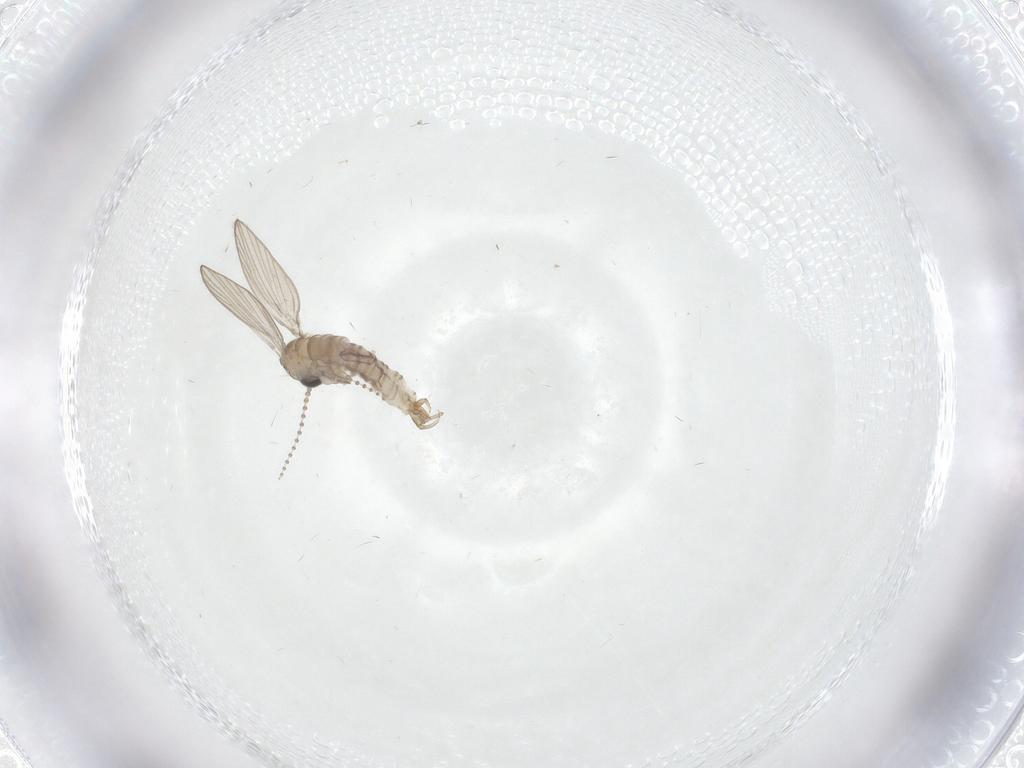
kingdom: Animalia
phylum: Arthropoda
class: Insecta
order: Diptera
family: Psychodidae
